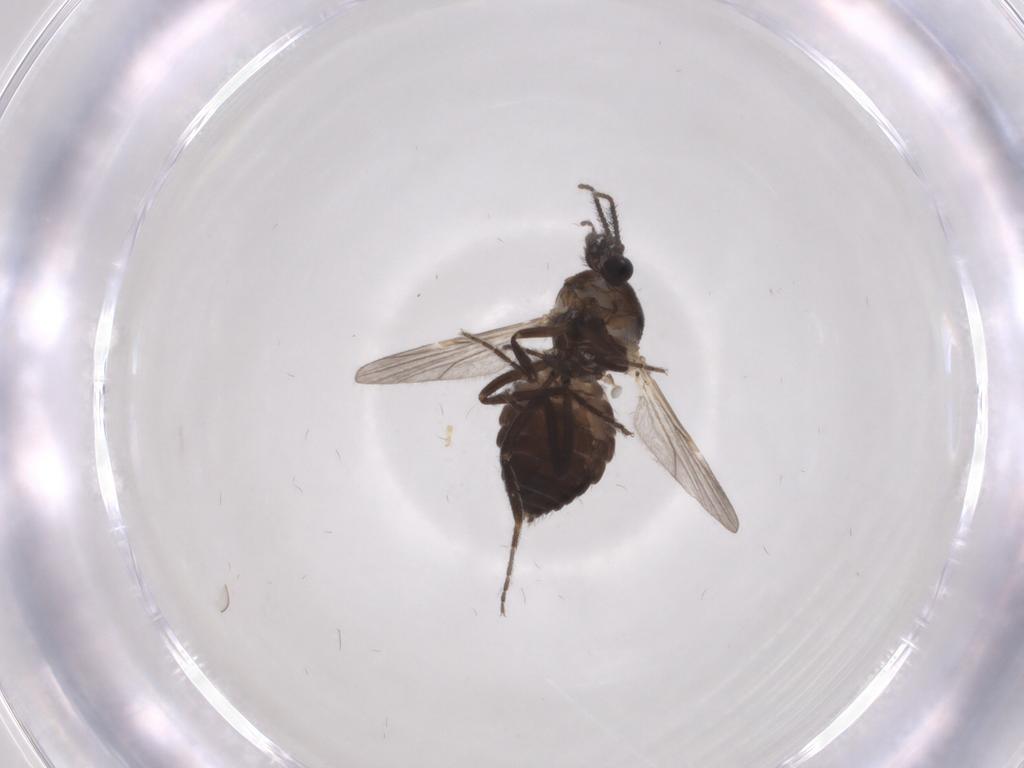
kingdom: Animalia
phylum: Arthropoda
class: Insecta
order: Diptera
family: Ceratopogonidae
